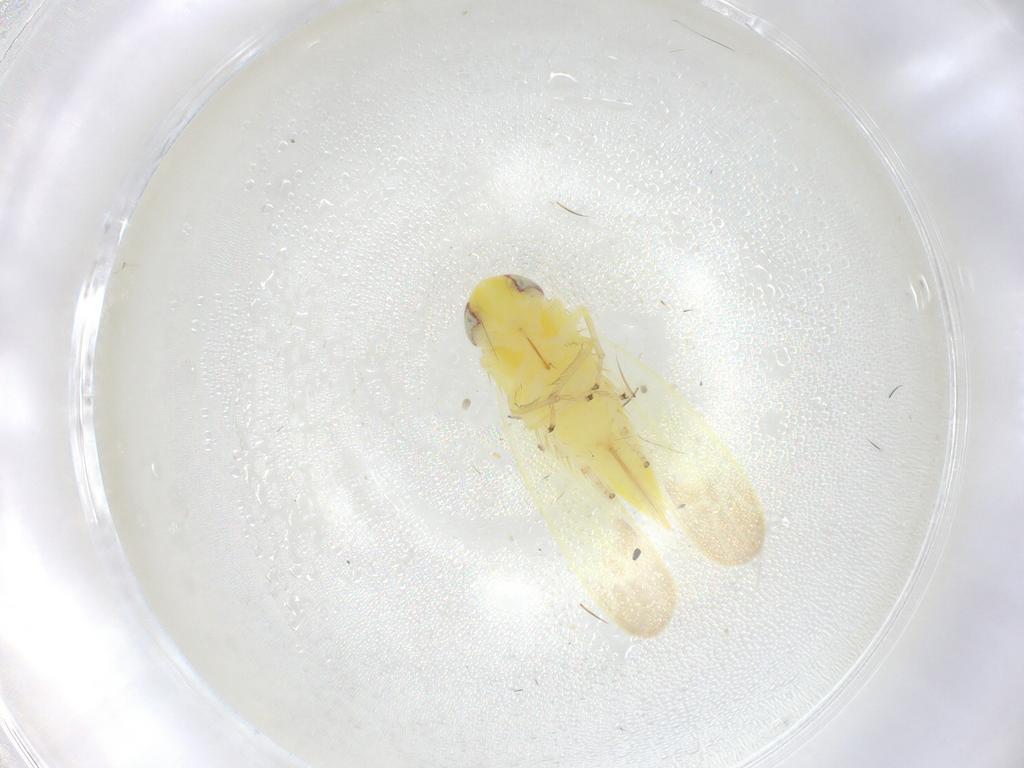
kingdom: Animalia
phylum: Arthropoda
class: Insecta
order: Hemiptera
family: Cicadellidae
